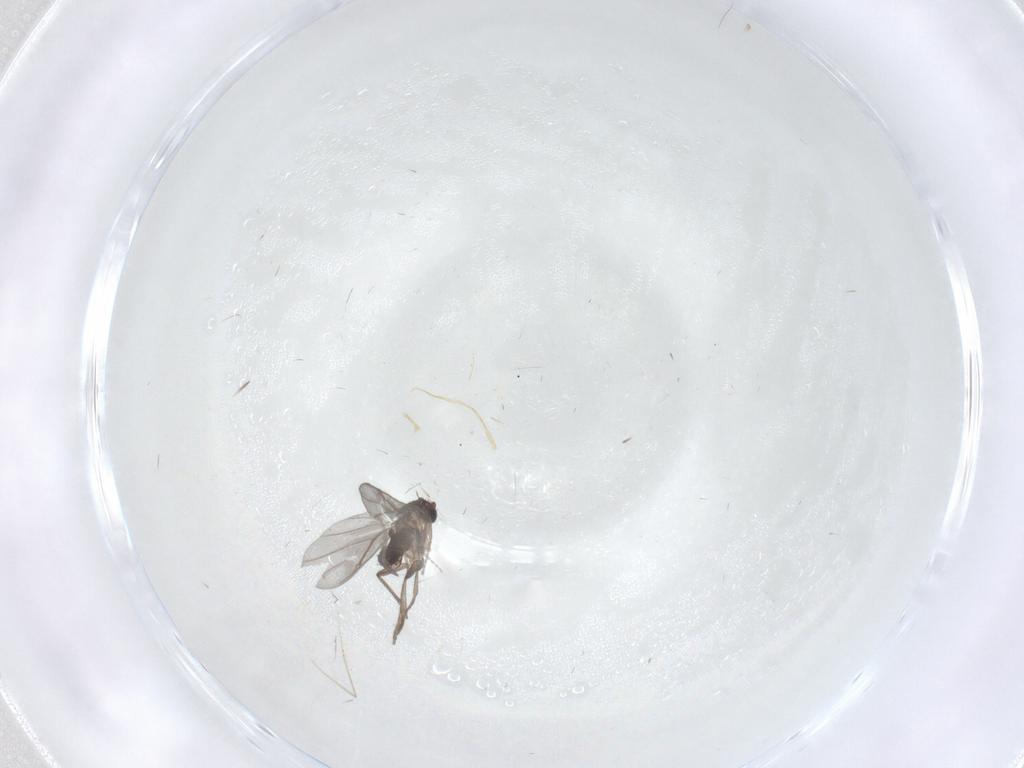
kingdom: Animalia
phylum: Arthropoda
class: Insecta
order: Diptera
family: Cecidomyiidae
